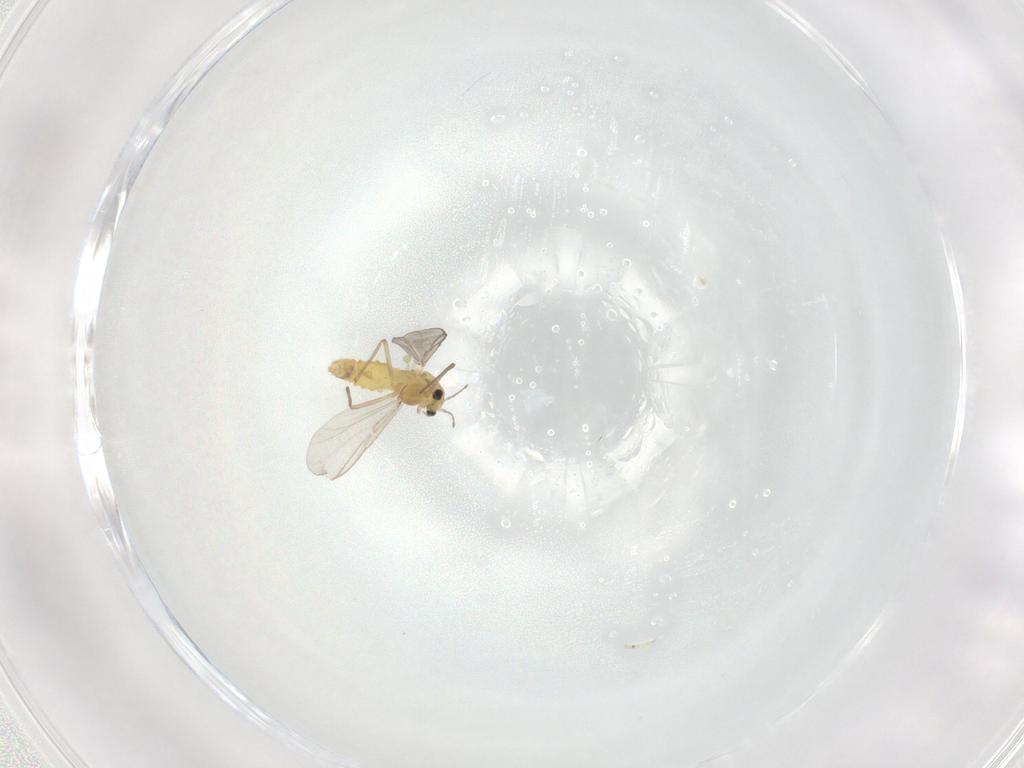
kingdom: Animalia
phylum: Arthropoda
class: Insecta
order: Diptera
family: Chironomidae
